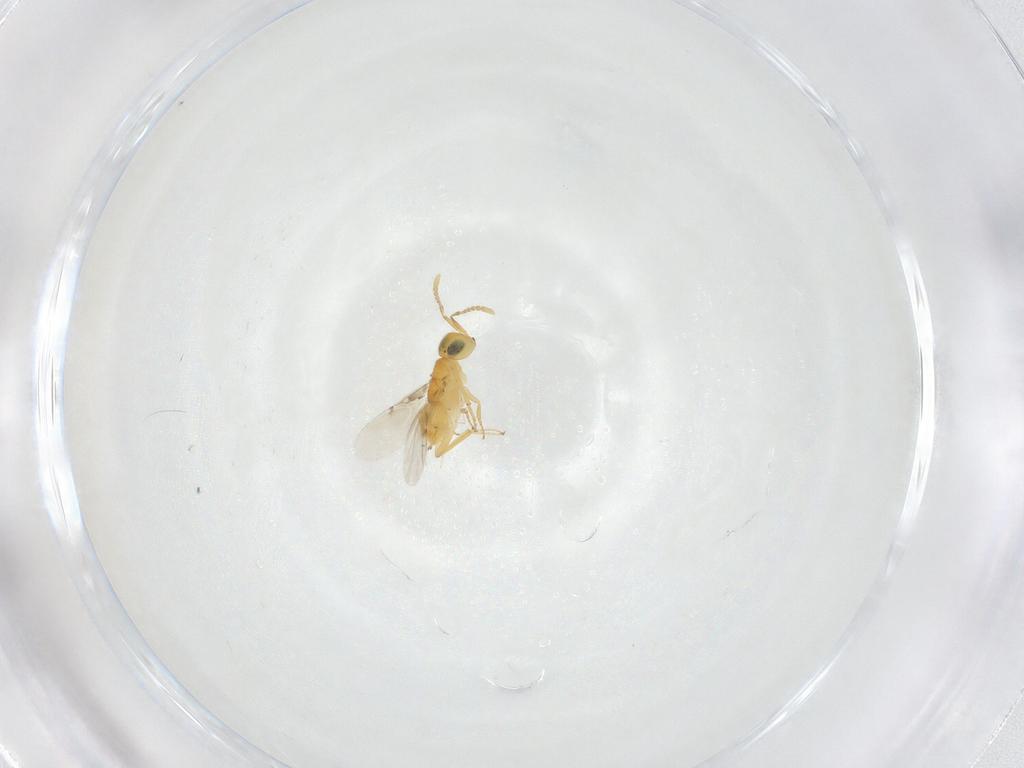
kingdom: Animalia
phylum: Arthropoda
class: Insecta
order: Hymenoptera
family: Encyrtidae
